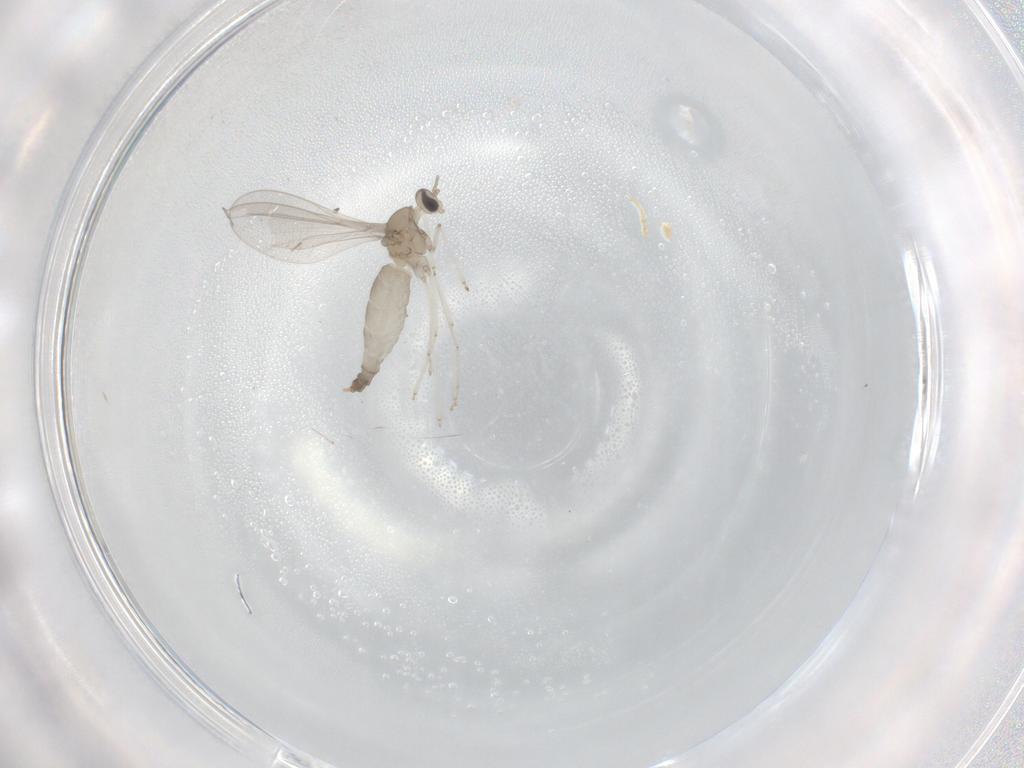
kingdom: Animalia
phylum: Arthropoda
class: Insecta
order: Diptera
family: Cecidomyiidae
